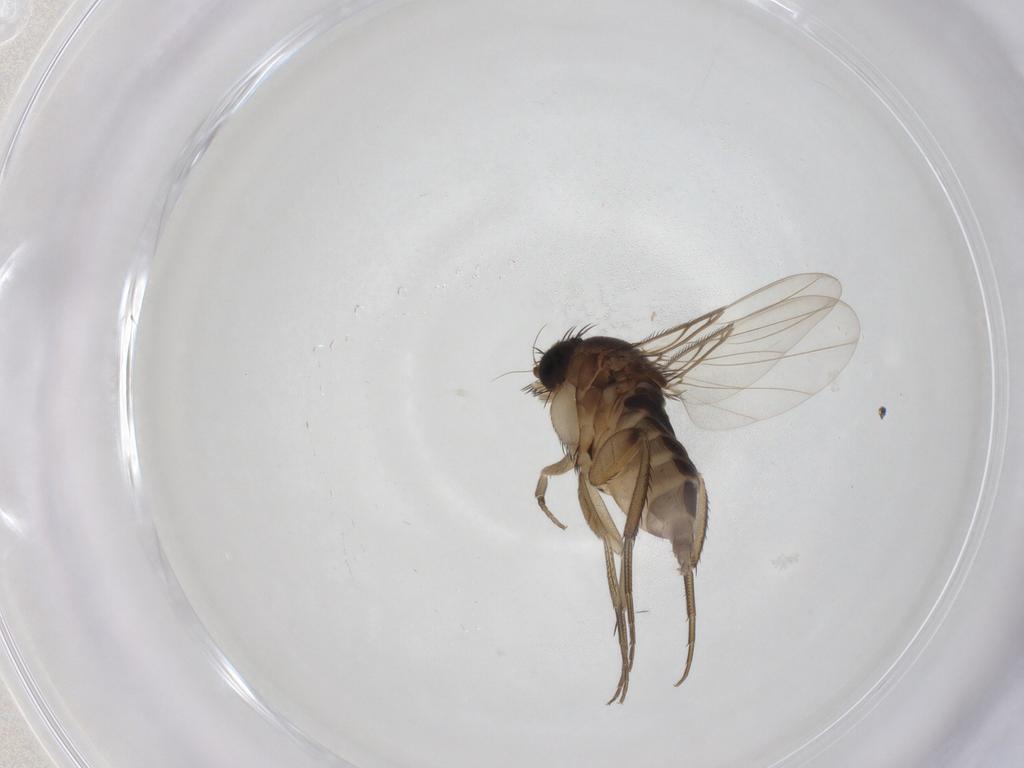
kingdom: Animalia
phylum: Arthropoda
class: Insecta
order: Diptera
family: Phoridae
